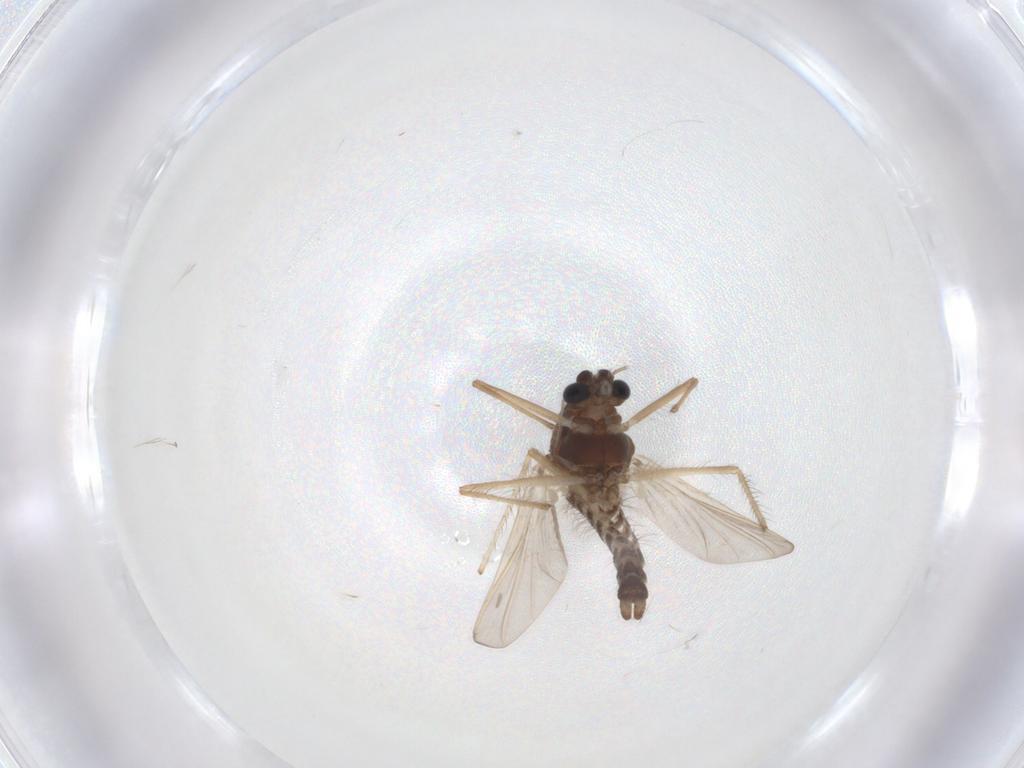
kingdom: Animalia
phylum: Arthropoda
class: Insecta
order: Diptera
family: Chironomidae
